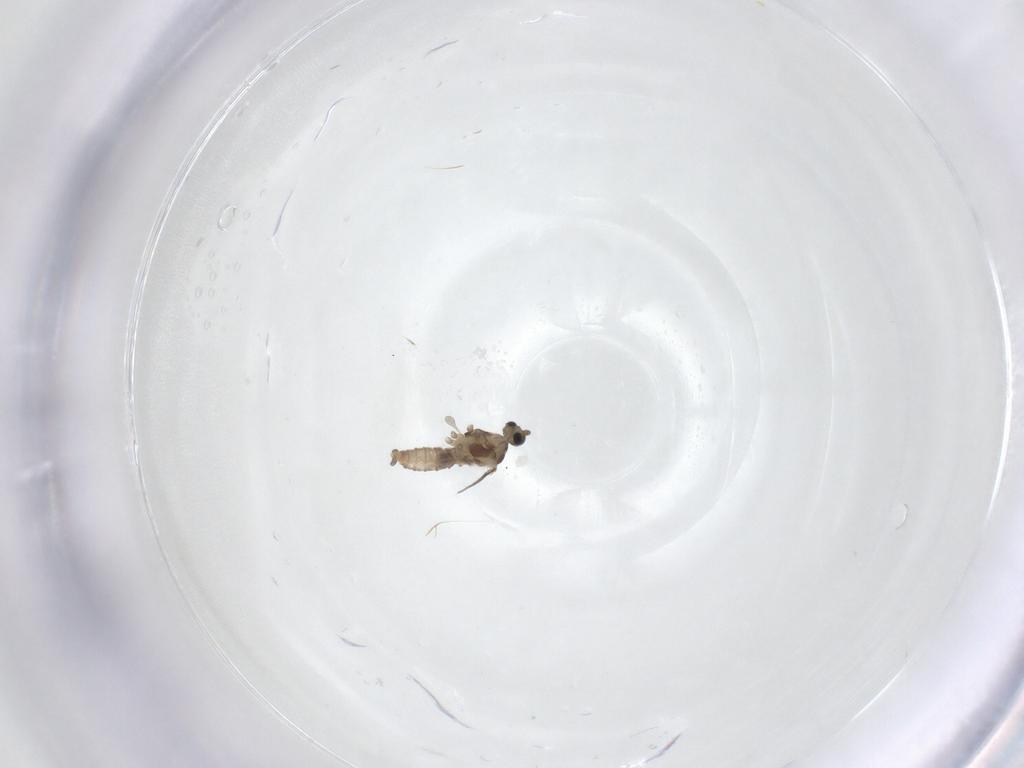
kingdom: Animalia
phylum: Arthropoda
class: Insecta
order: Diptera
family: Tipulidae
